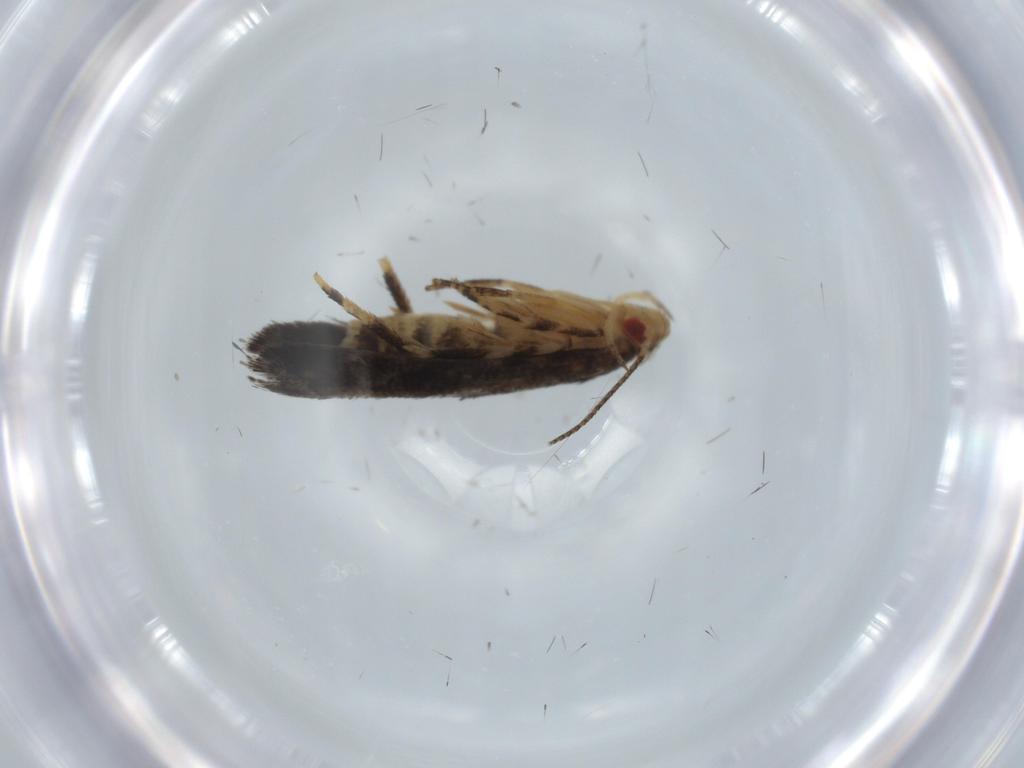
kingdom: Animalia
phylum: Arthropoda
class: Insecta
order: Lepidoptera
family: Momphidae
